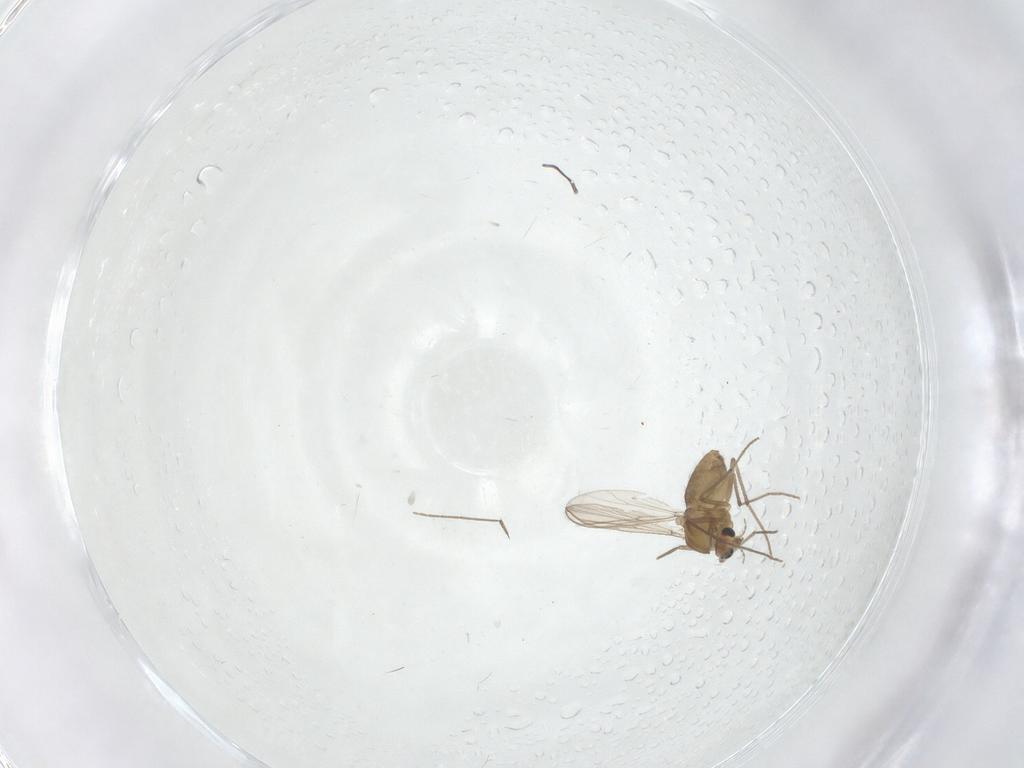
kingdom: Animalia
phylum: Arthropoda
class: Insecta
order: Diptera
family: Chironomidae
